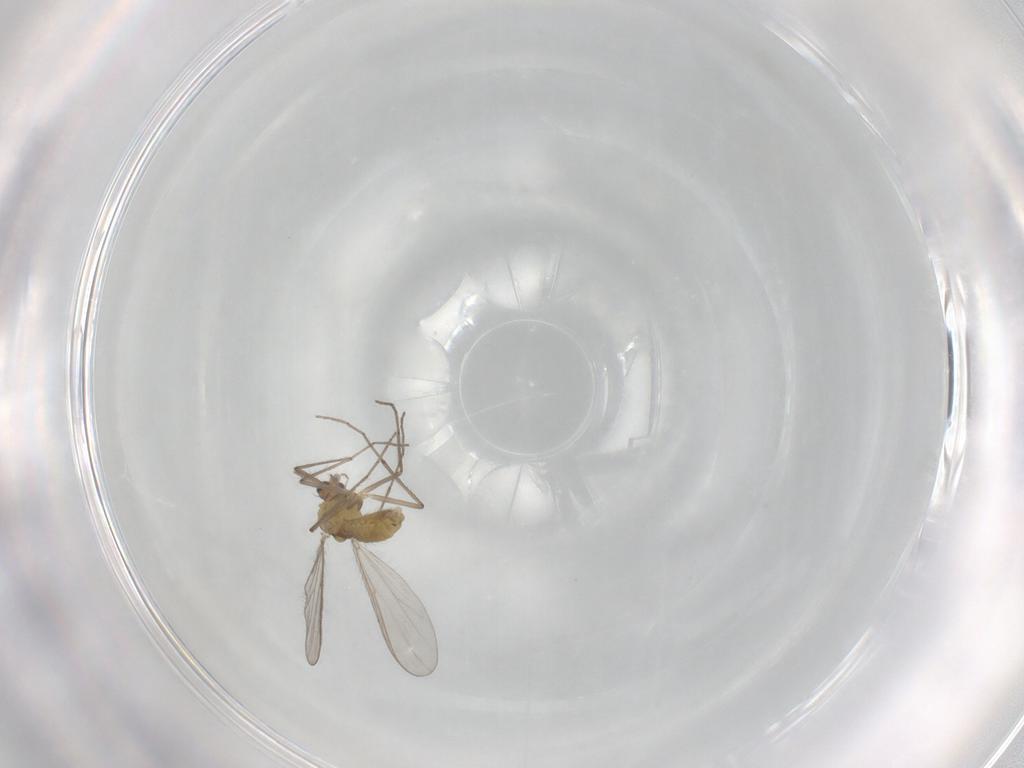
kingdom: Animalia
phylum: Arthropoda
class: Insecta
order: Diptera
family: Chironomidae
